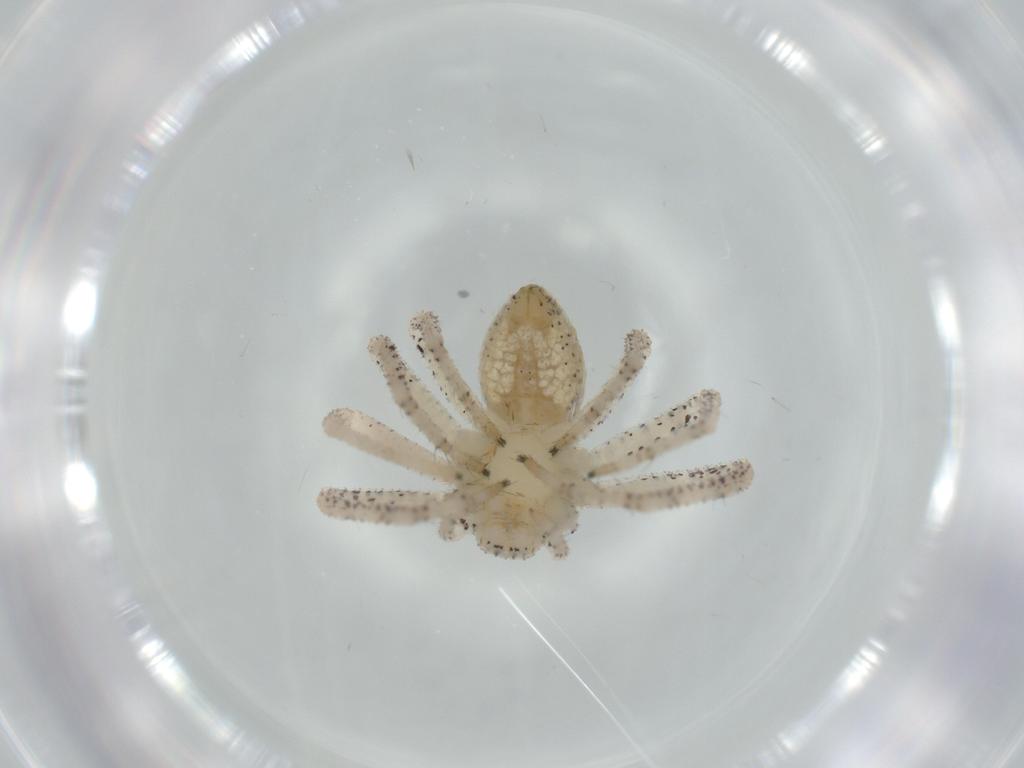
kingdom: Animalia
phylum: Arthropoda
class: Arachnida
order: Araneae
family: Philodromidae
